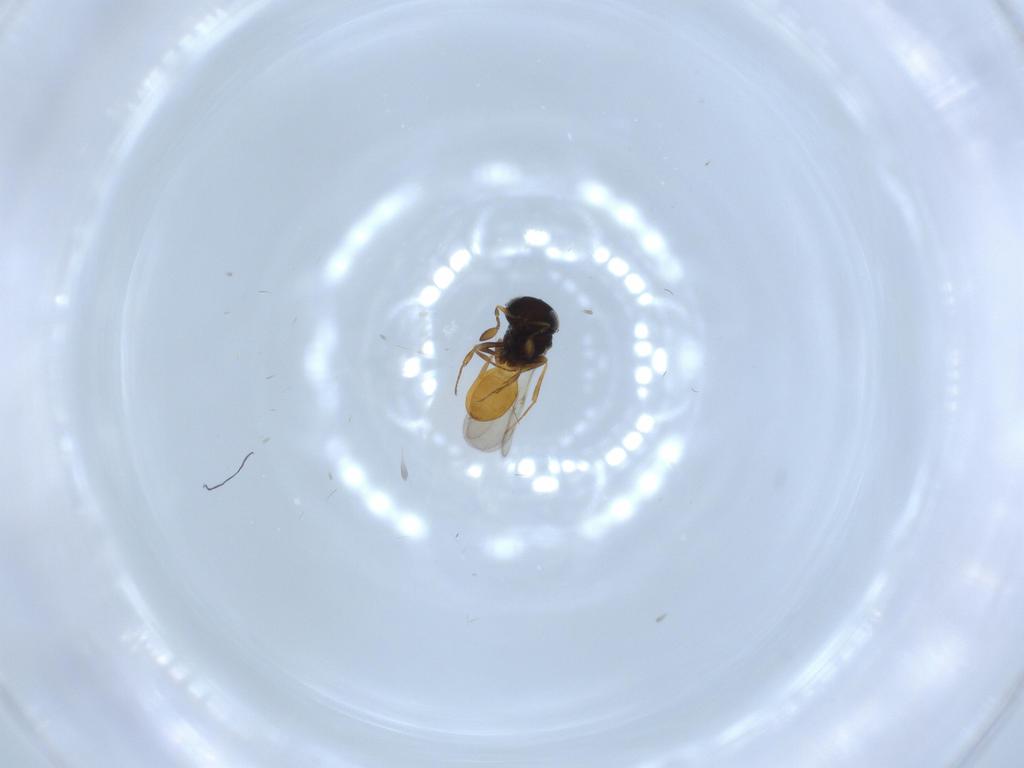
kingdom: Animalia
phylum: Arthropoda
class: Insecta
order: Hymenoptera
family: Scelionidae
